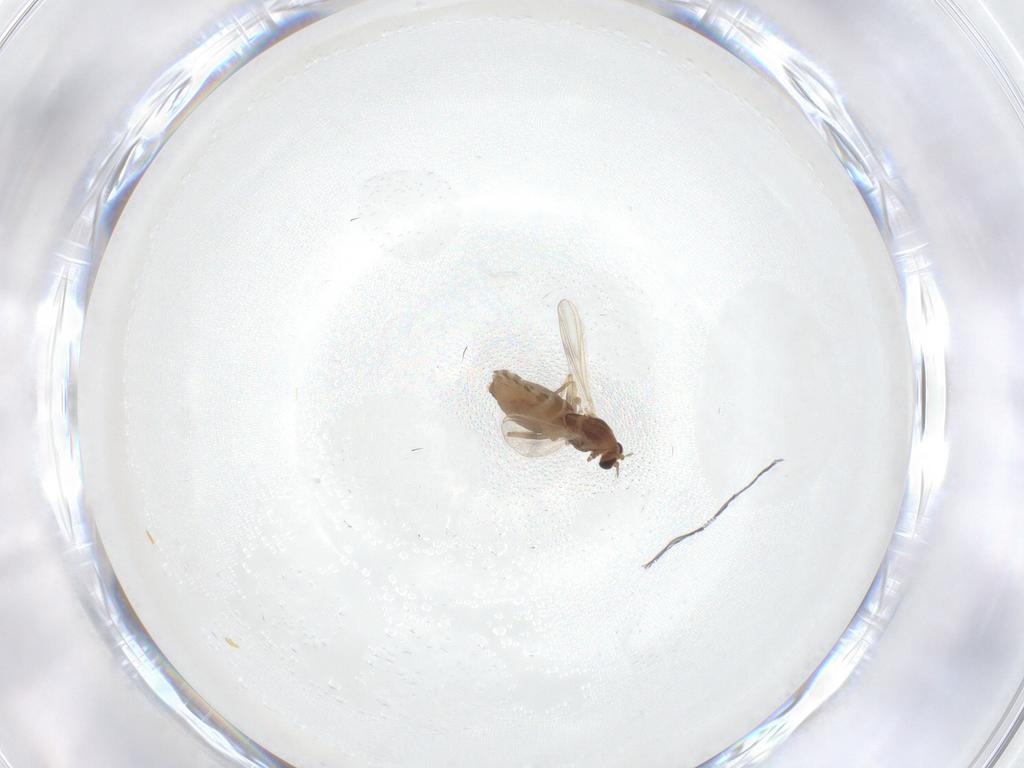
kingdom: Animalia
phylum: Arthropoda
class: Insecta
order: Diptera
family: Chironomidae
